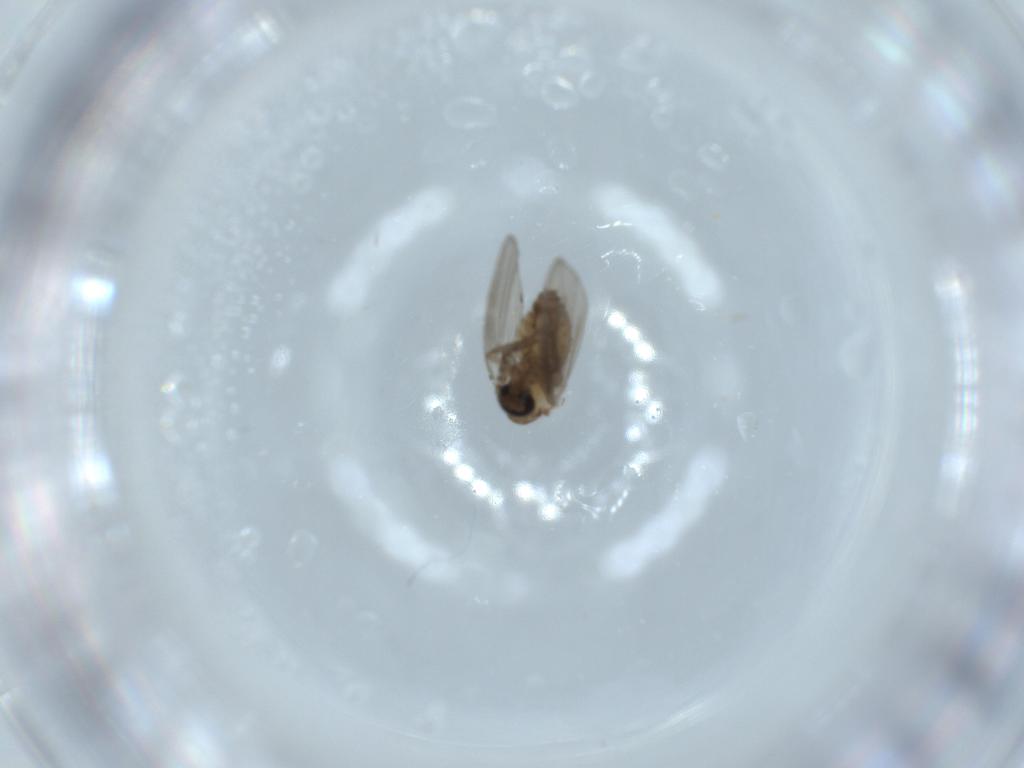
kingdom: Animalia
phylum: Arthropoda
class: Insecta
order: Diptera
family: Psychodidae
